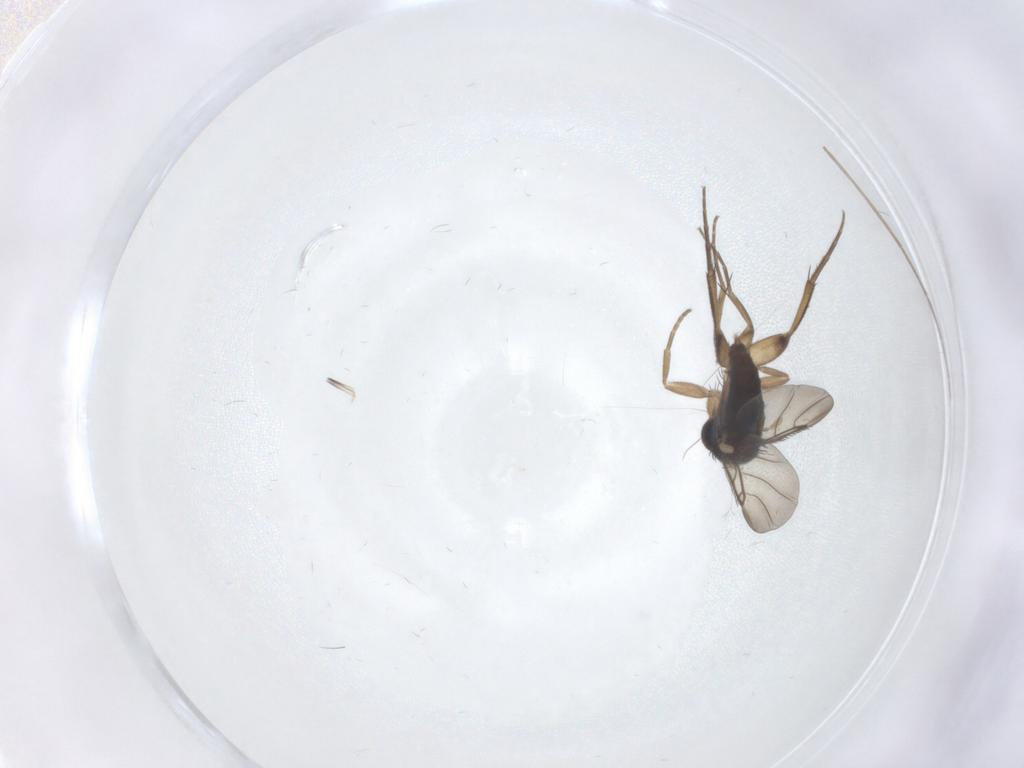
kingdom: Animalia
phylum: Arthropoda
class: Insecta
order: Diptera
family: Phoridae
